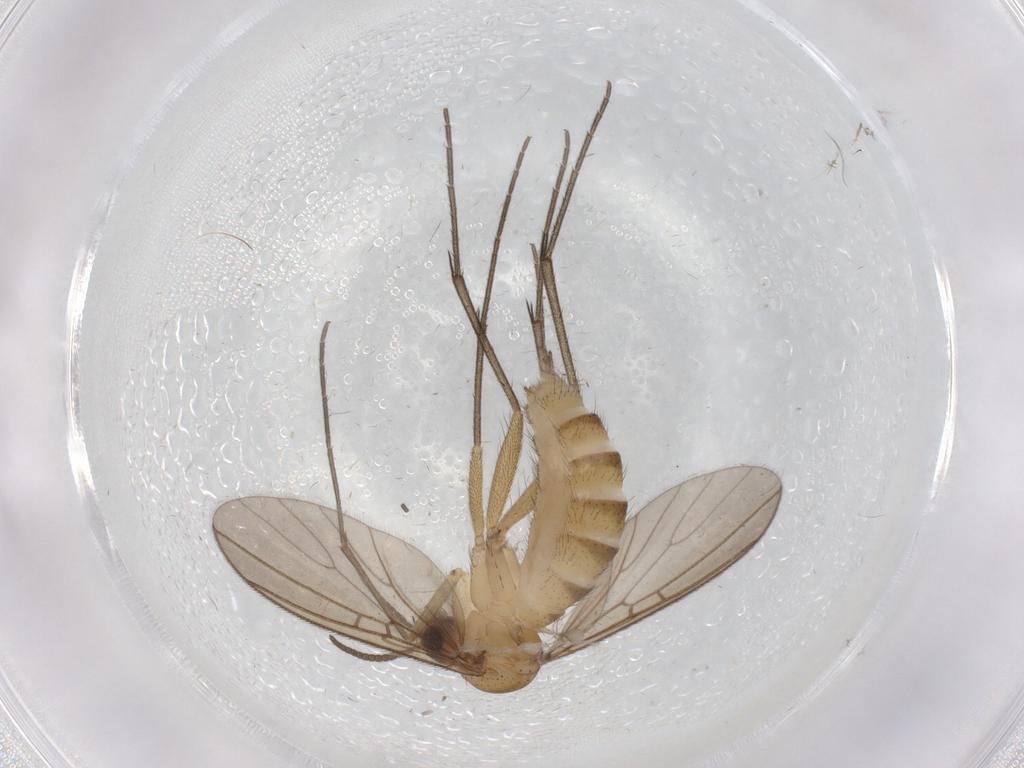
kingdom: Animalia
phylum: Arthropoda
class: Insecta
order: Diptera
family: Mycetophilidae
